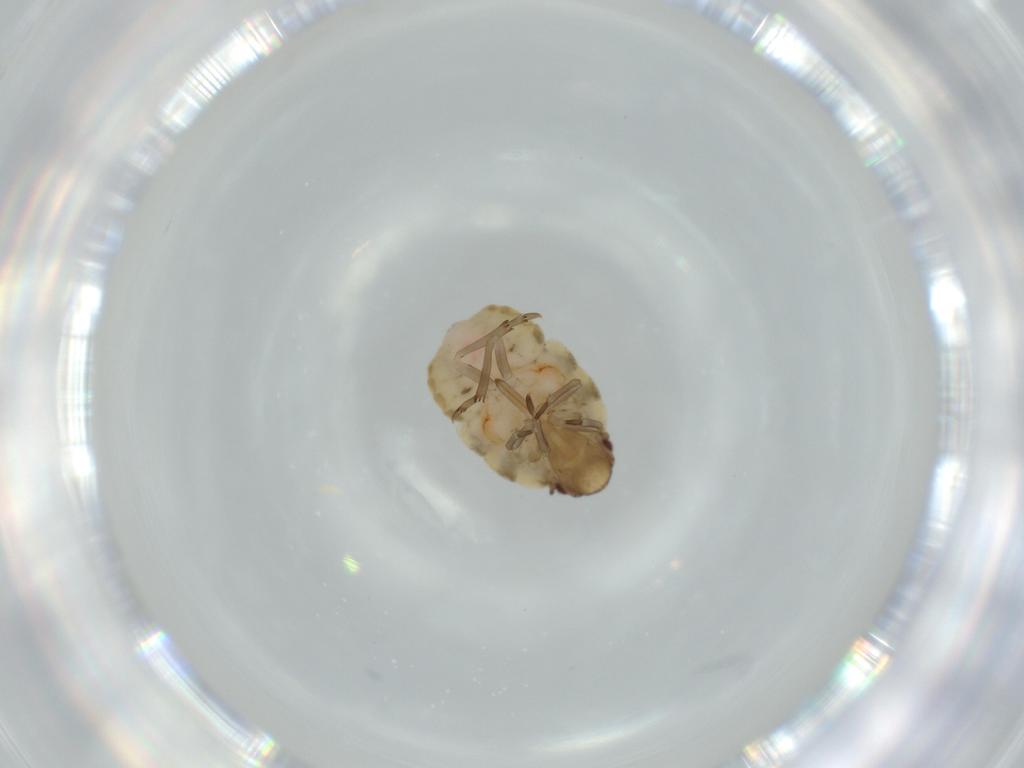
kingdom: Animalia
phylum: Arthropoda
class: Insecta
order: Hemiptera
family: Flatidae
